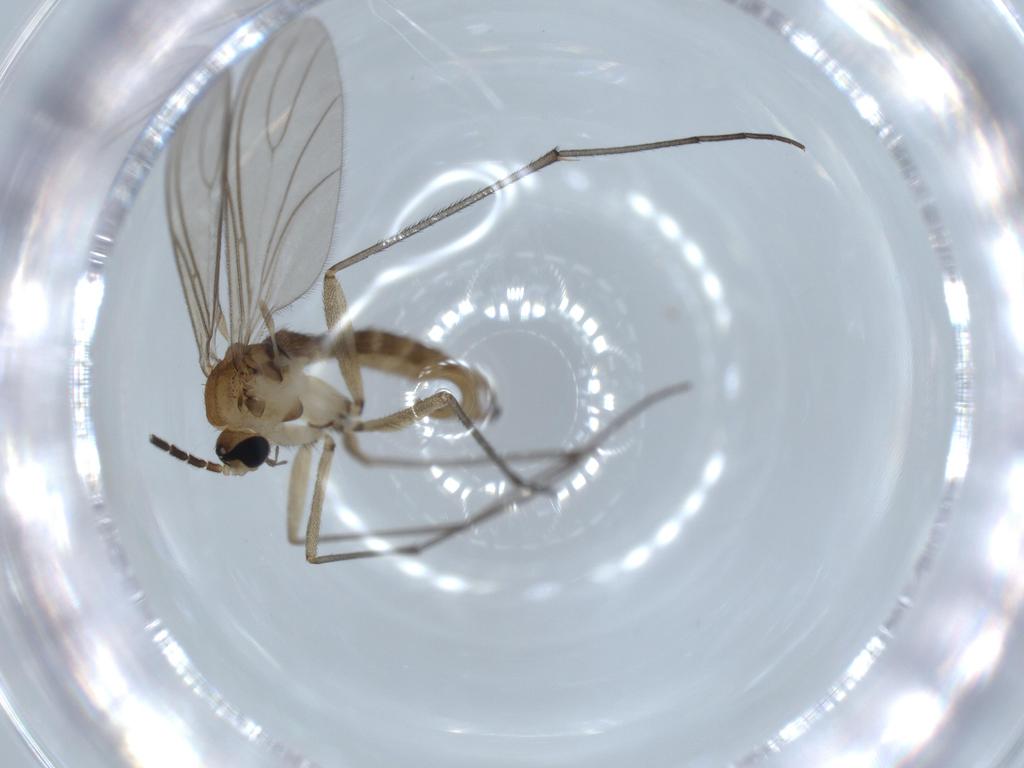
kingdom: Animalia
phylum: Arthropoda
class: Insecta
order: Diptera
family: Sciaridae
